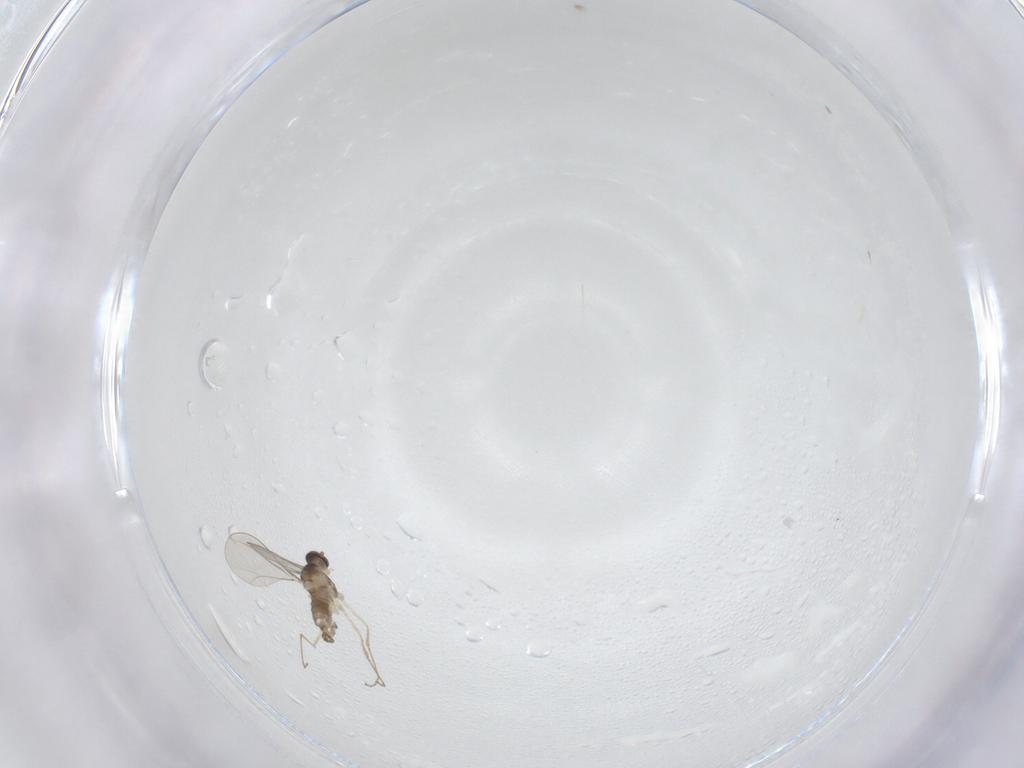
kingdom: Animalia
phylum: Arthropoda
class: Insecta
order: Diptera
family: Cecidomyiidae
